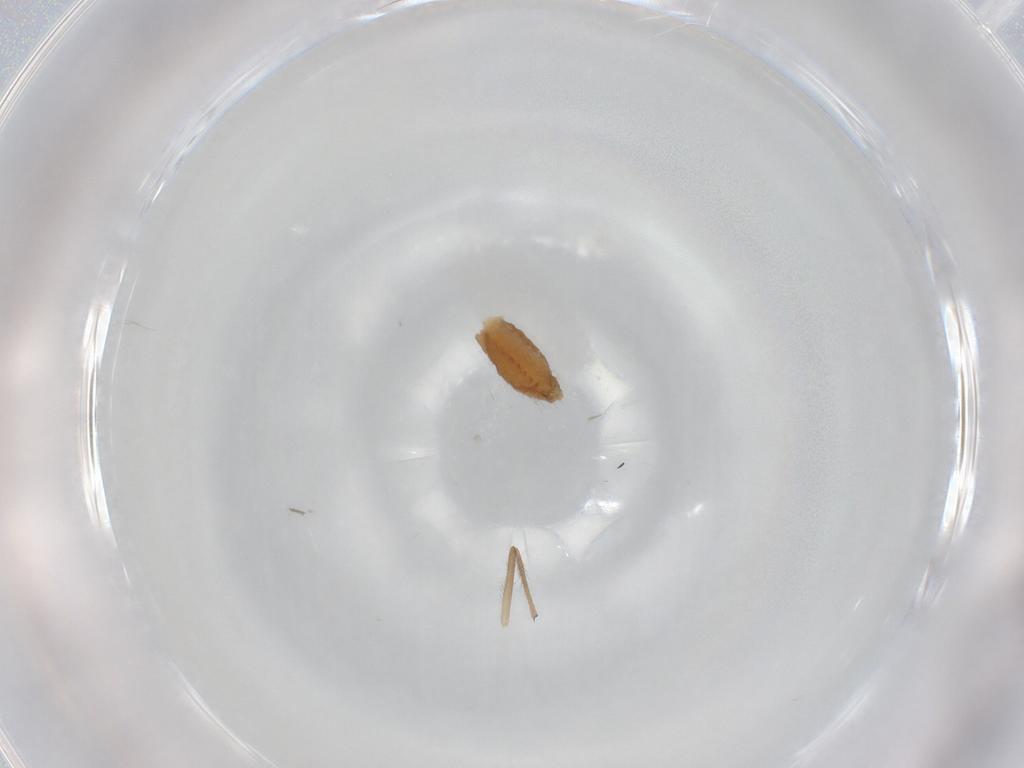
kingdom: Animalia
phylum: Arthropoda
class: Insecta
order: Diptera
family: Chironomidae
